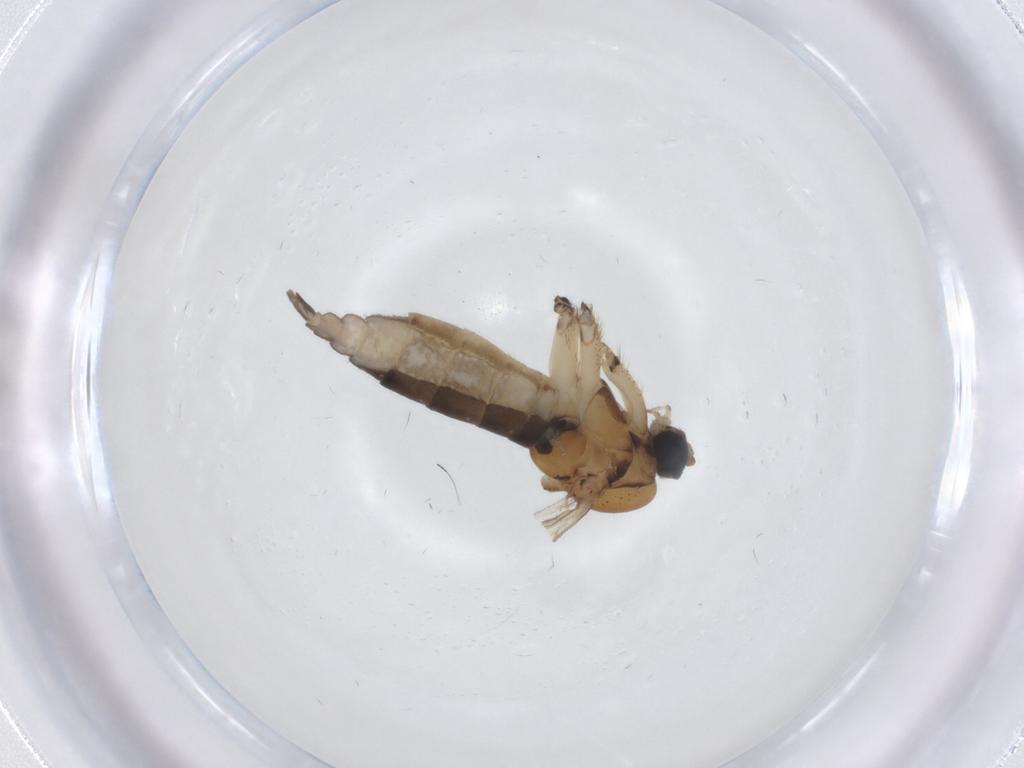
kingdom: Animalia
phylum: Arthropoda
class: Insecta
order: Diptera
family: Sciaridae
